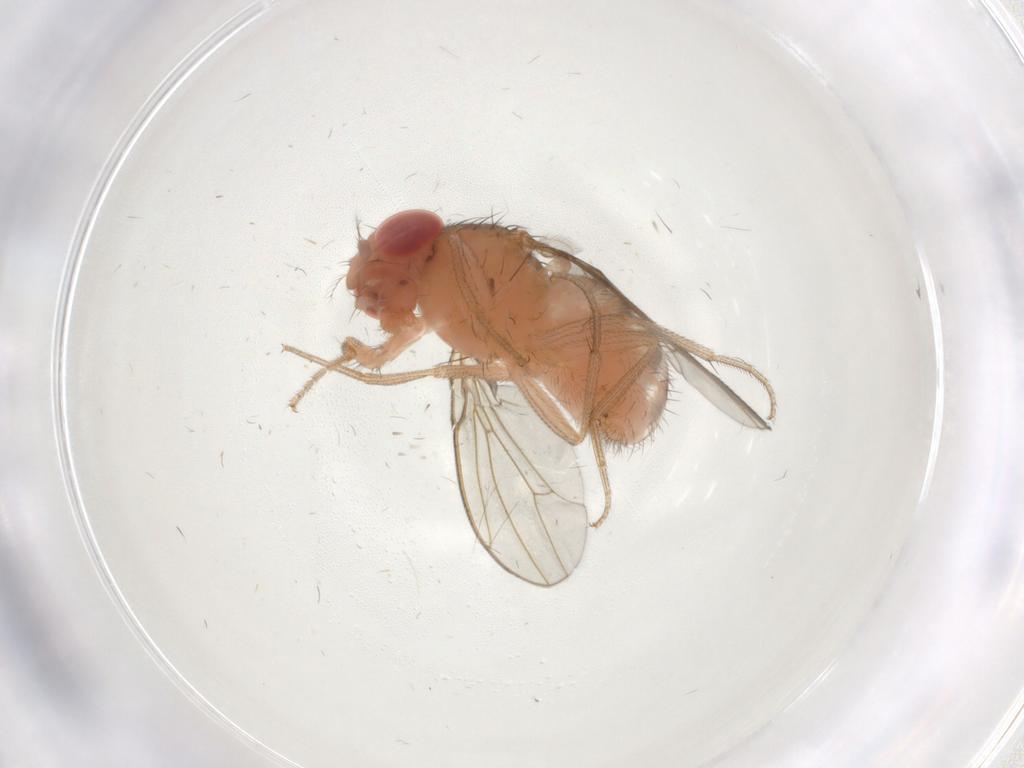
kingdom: Animalia
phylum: Arthropoda
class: Insecta
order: Diptera
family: Drosophilidae
